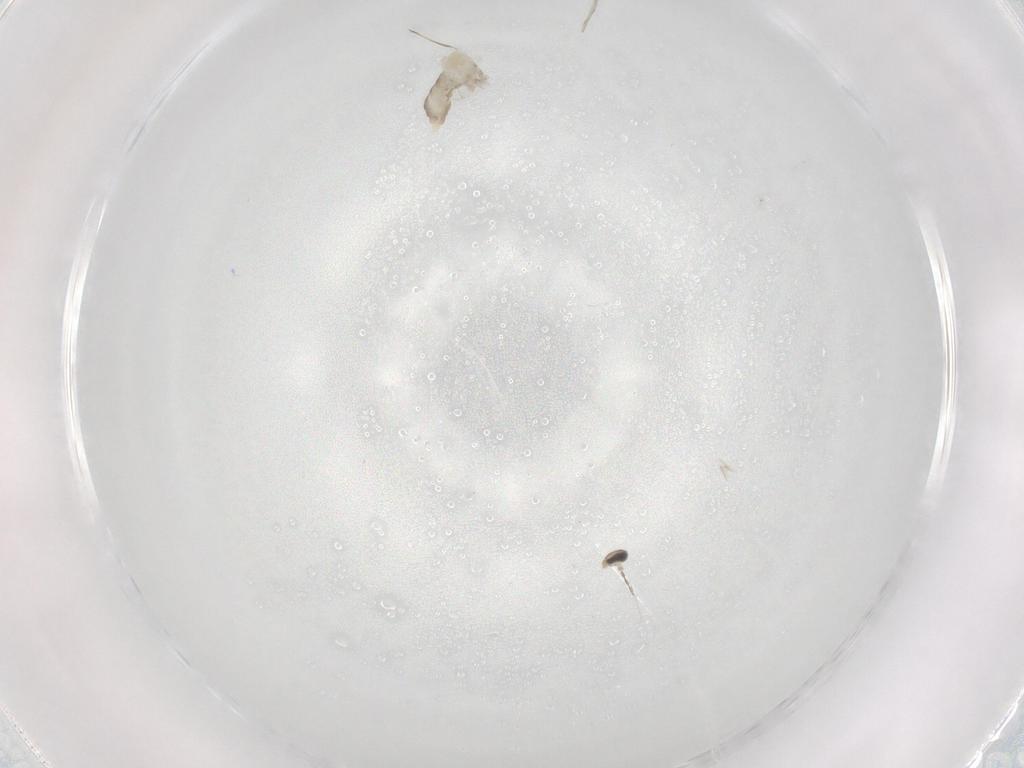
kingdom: Animalia
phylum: Arthropoda
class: Insecta
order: Diptera
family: Cecidomyiidae
